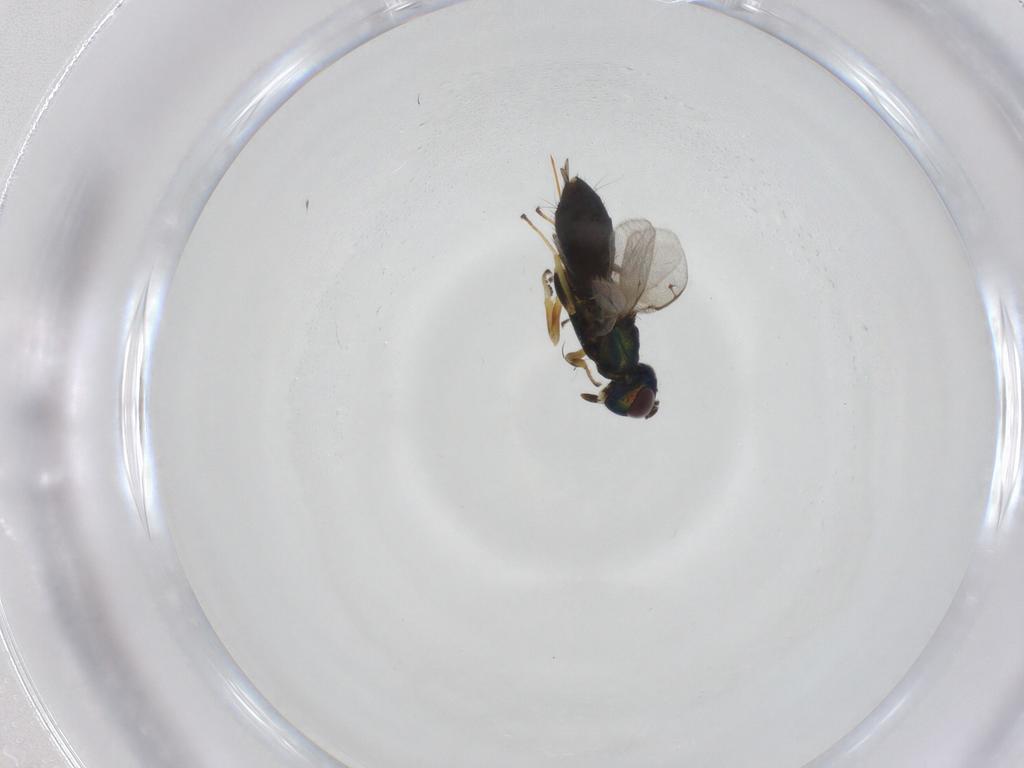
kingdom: Animalia
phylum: Arthropoda
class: Insecta
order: Hymenoptera
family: Eupelmidae
